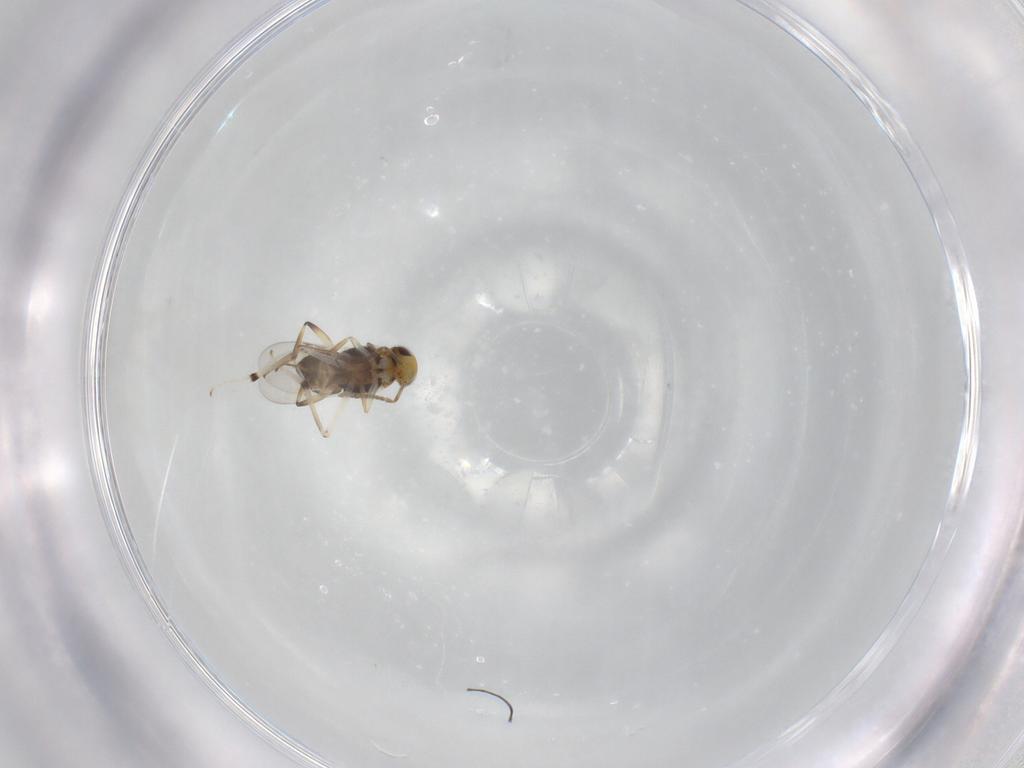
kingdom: Animalia
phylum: Arthropoda
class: Insecta
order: Hymenoptera
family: Encyrtidae
